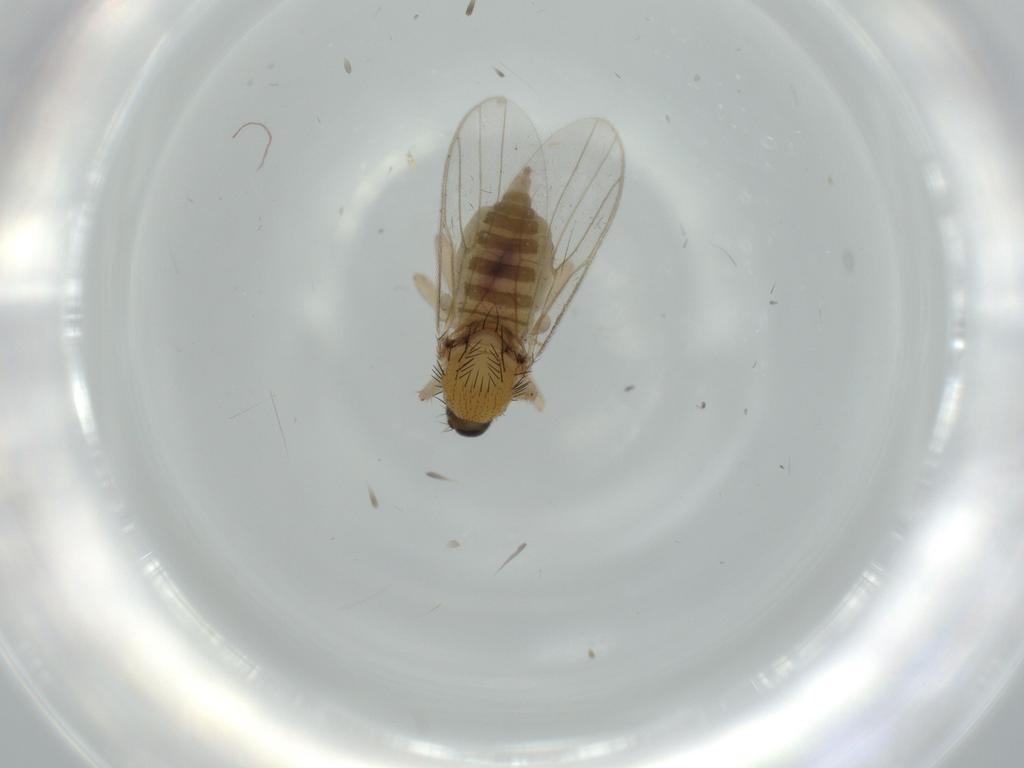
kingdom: Animalia
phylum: Arthropoda
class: Insecta
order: Diptera
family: Hybotidae
